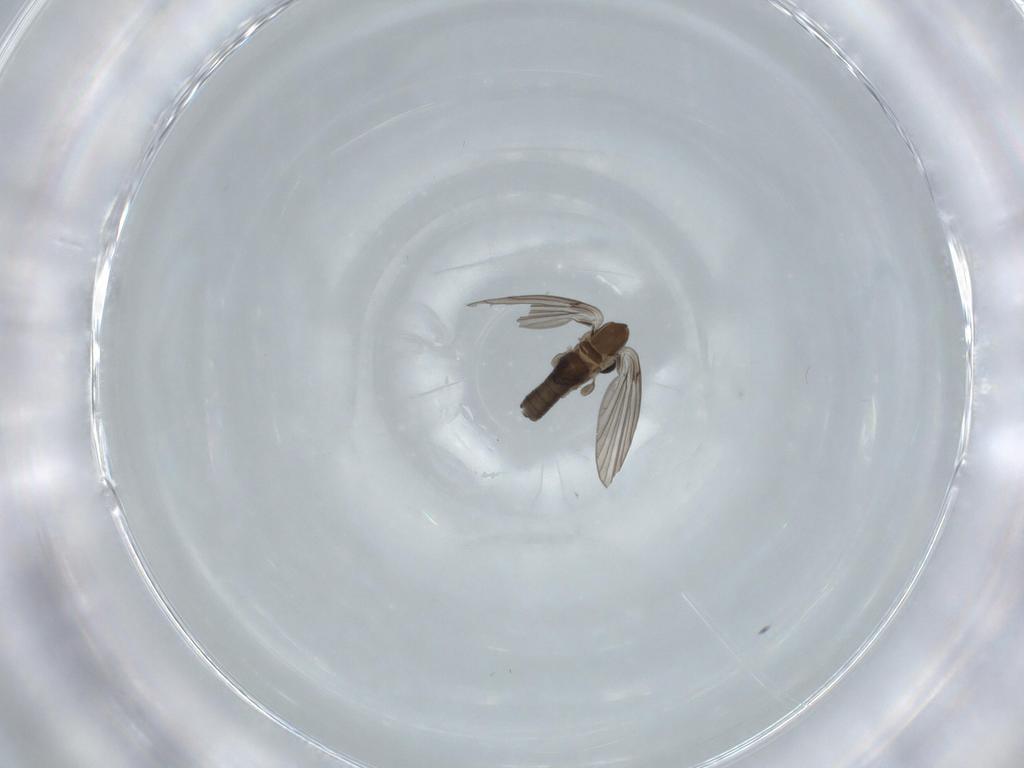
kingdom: Animalia
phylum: Arthropoda
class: Insecta
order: Diptera
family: Psychodidae
